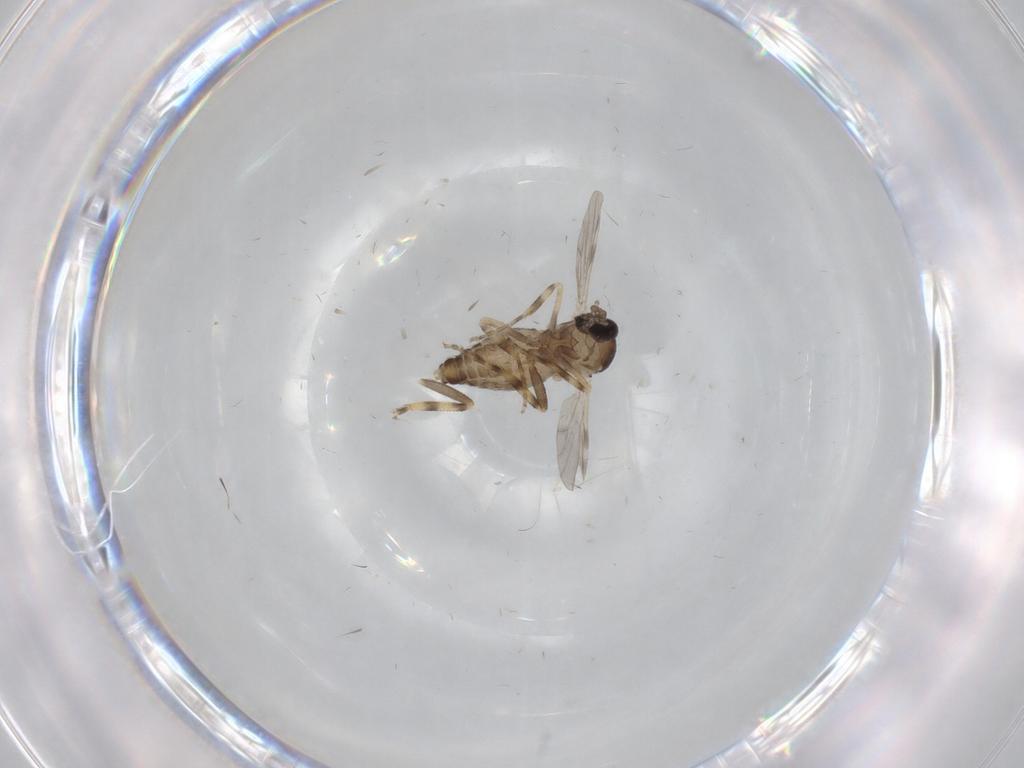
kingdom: Animalia
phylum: Arthropoda
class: Insecta
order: Diptera
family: Ceratopogonidae
